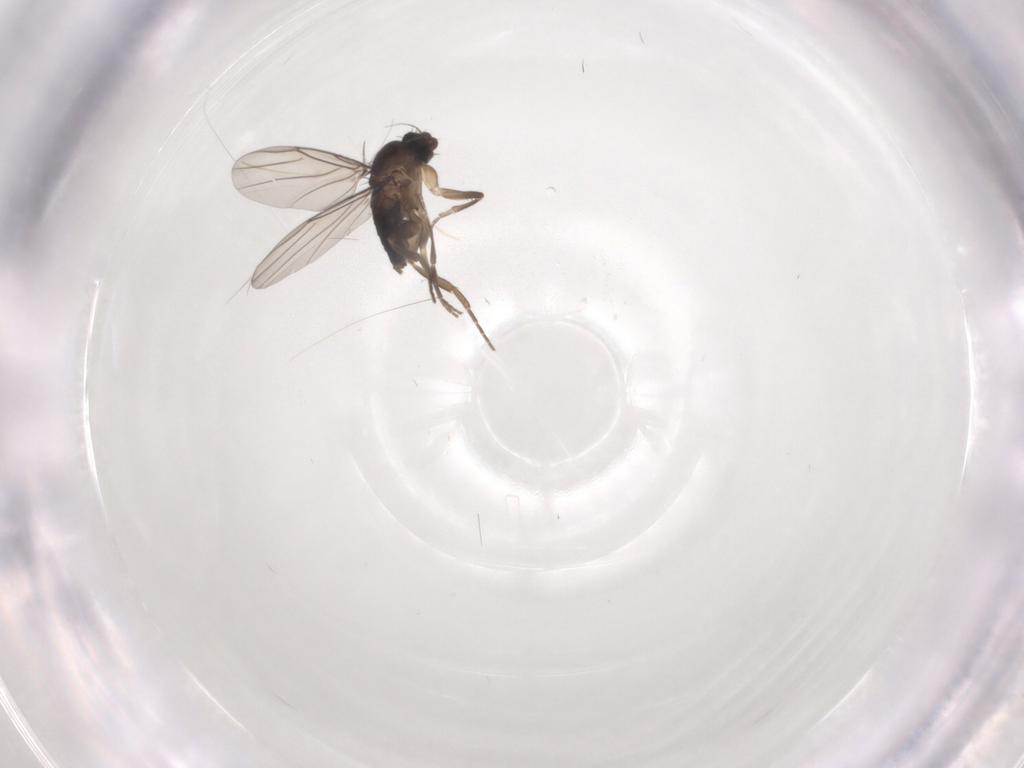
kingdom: Animalia
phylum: Arthropoda
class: Insecta
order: Diptera
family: Phoridae
